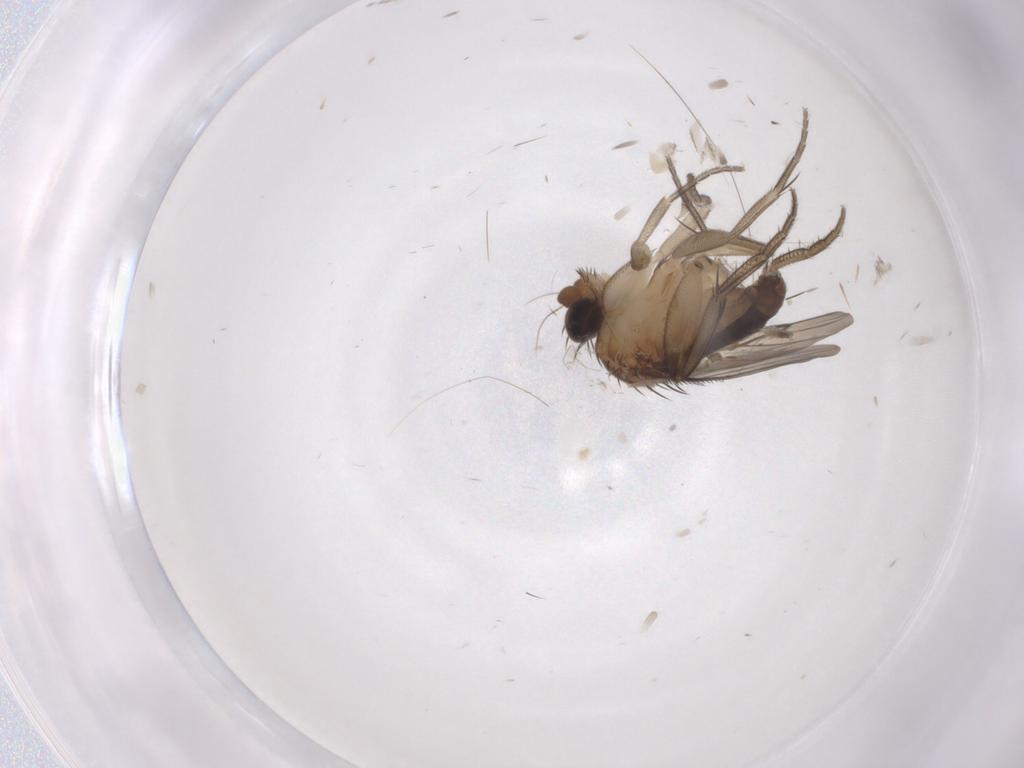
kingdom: Animalia
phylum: Arthropoda
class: Insecta
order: Diptera
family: Phoridae
